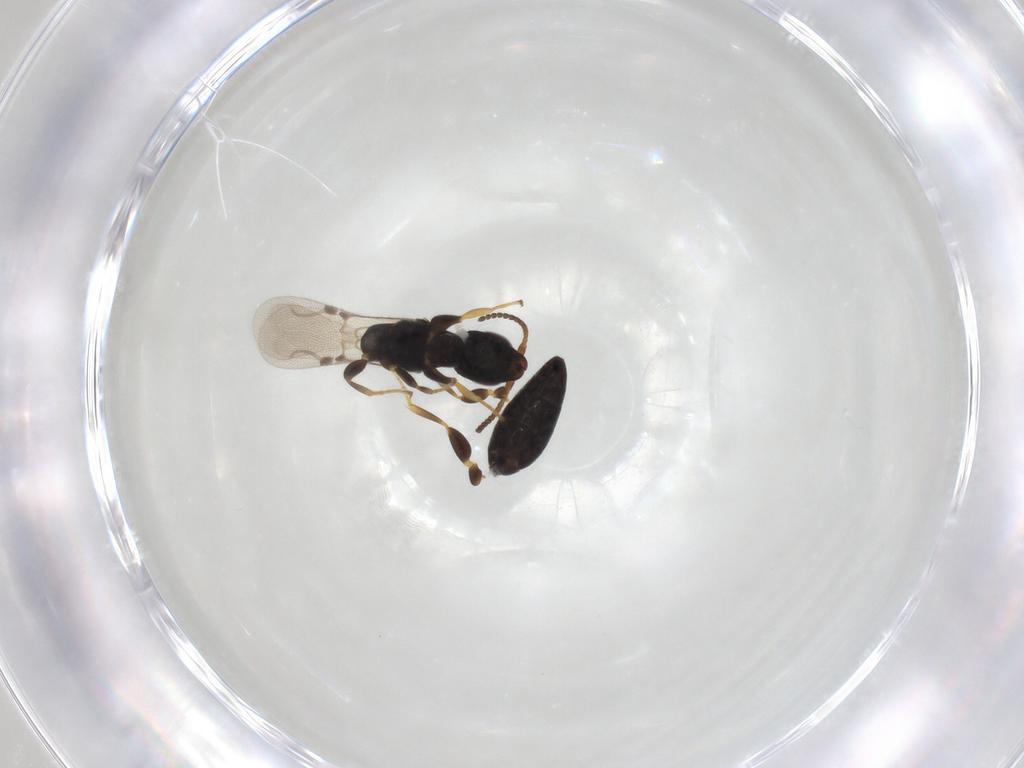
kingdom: Animalia
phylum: Arthropoda
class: Insecta
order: Hymenoptera
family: Bethylidae
